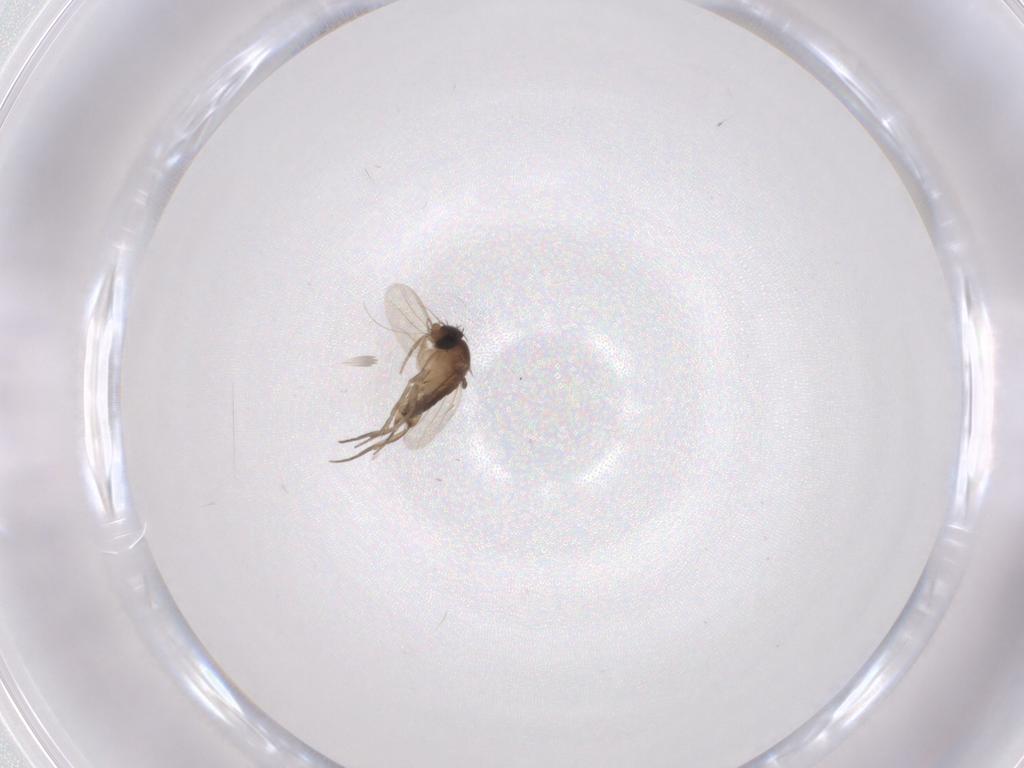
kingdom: Animalia
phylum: Arthropoda
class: Insecta
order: Diptera
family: Phoridae
